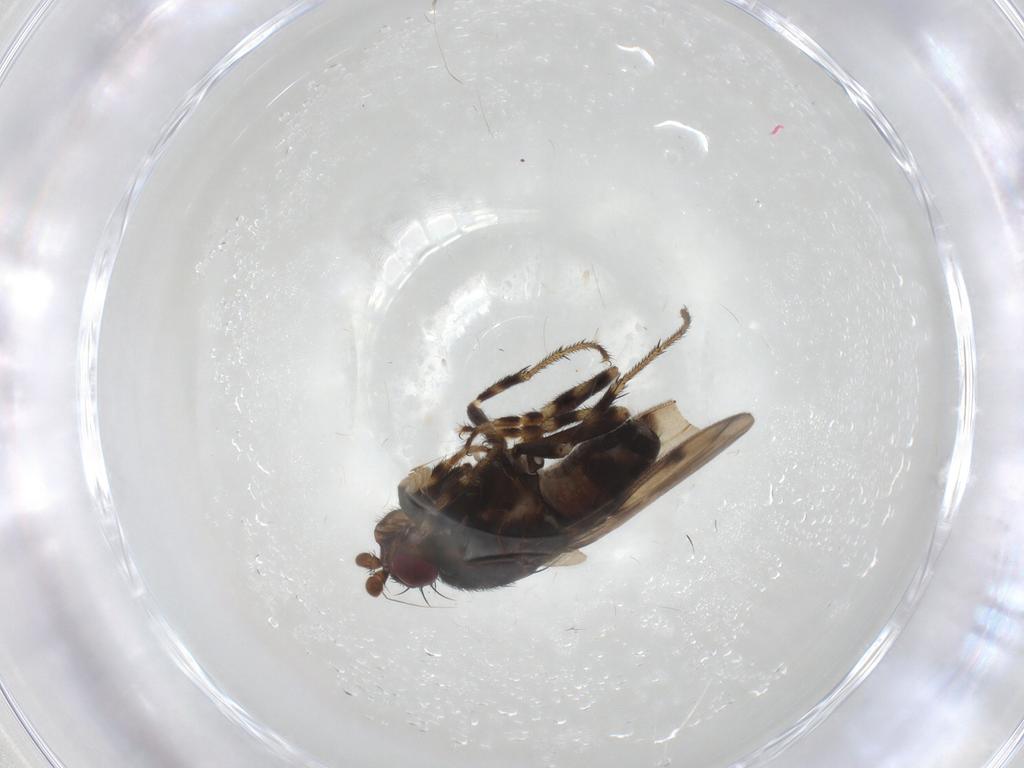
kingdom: Animalia
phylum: Arthropoda
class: Insecta
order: Diptera
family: Sphaeroceridae
